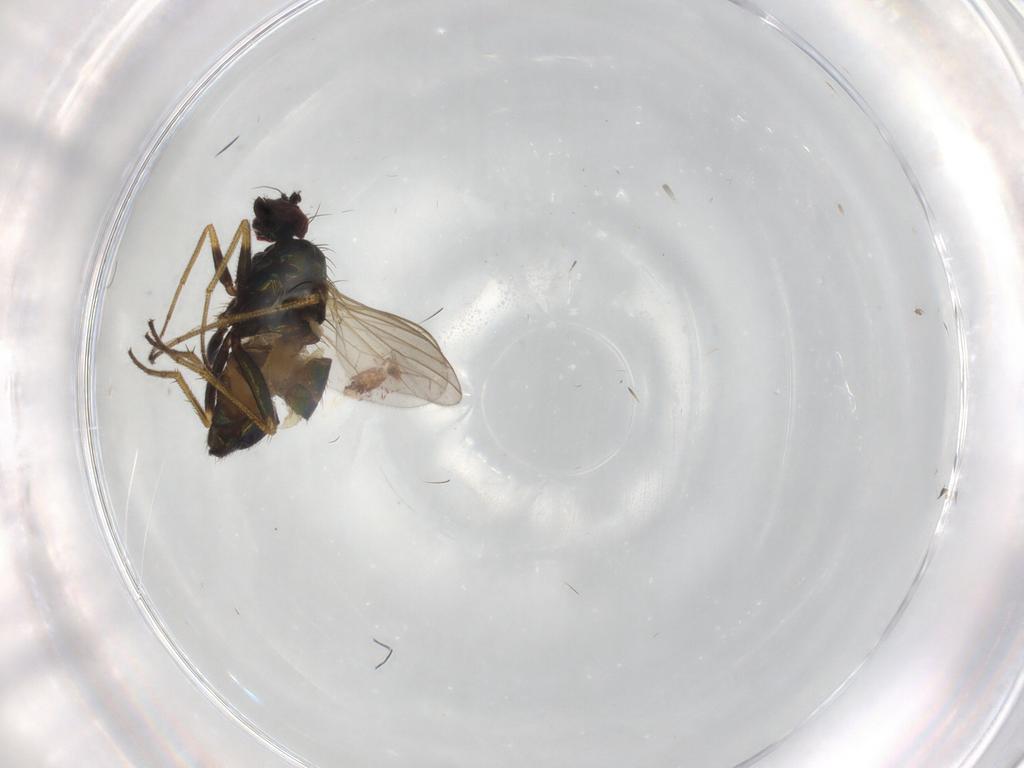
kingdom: Animalia
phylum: Arthropoda
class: Insecta
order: Diptera
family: Dolichopodidae
